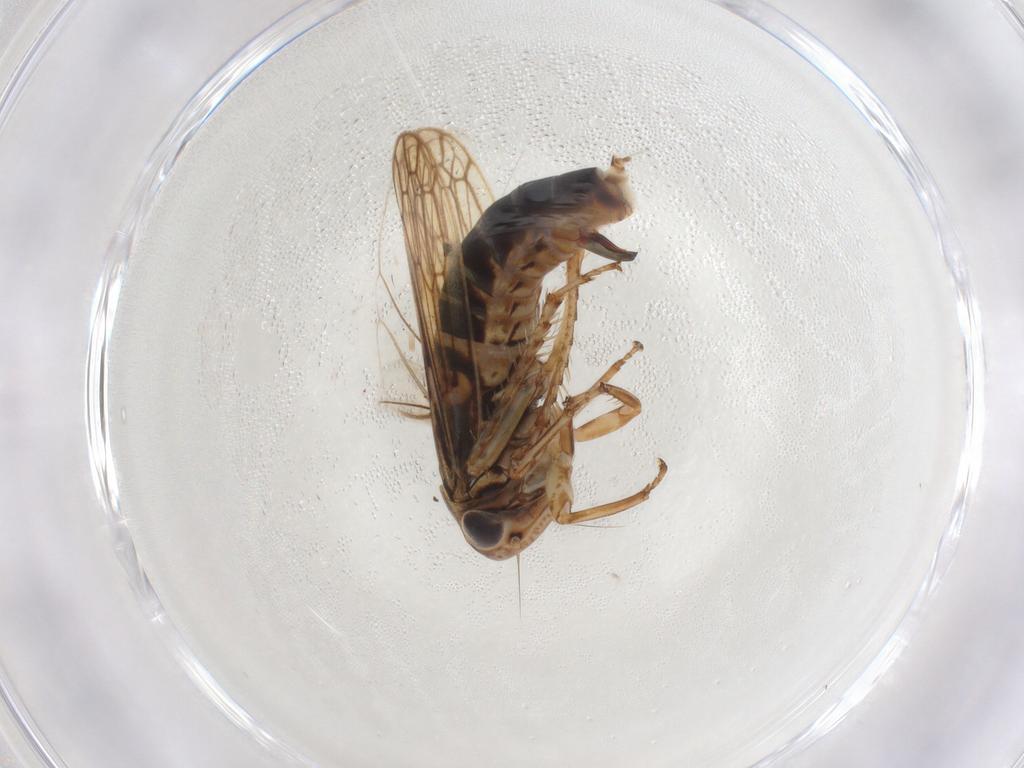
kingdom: Animalia
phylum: Arthropoda
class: Insecta
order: Hemiptera
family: Cicadellidae
